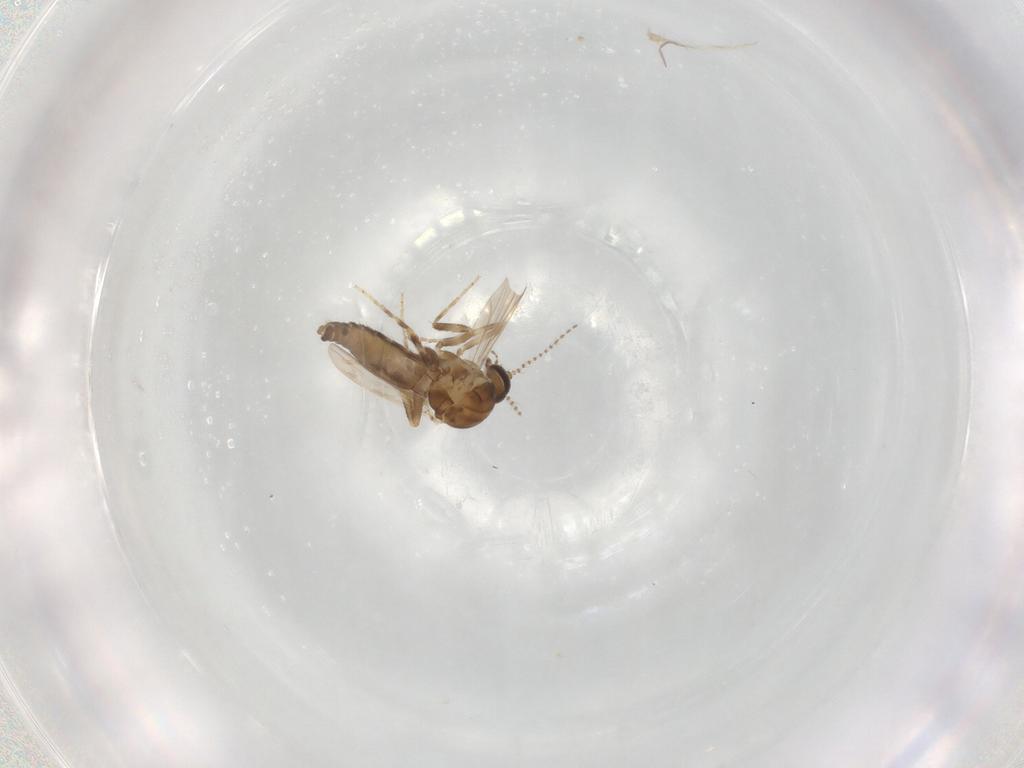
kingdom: Animalia
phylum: Arthropoda
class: Insecta
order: Diptera
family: Ceratopogonidae
